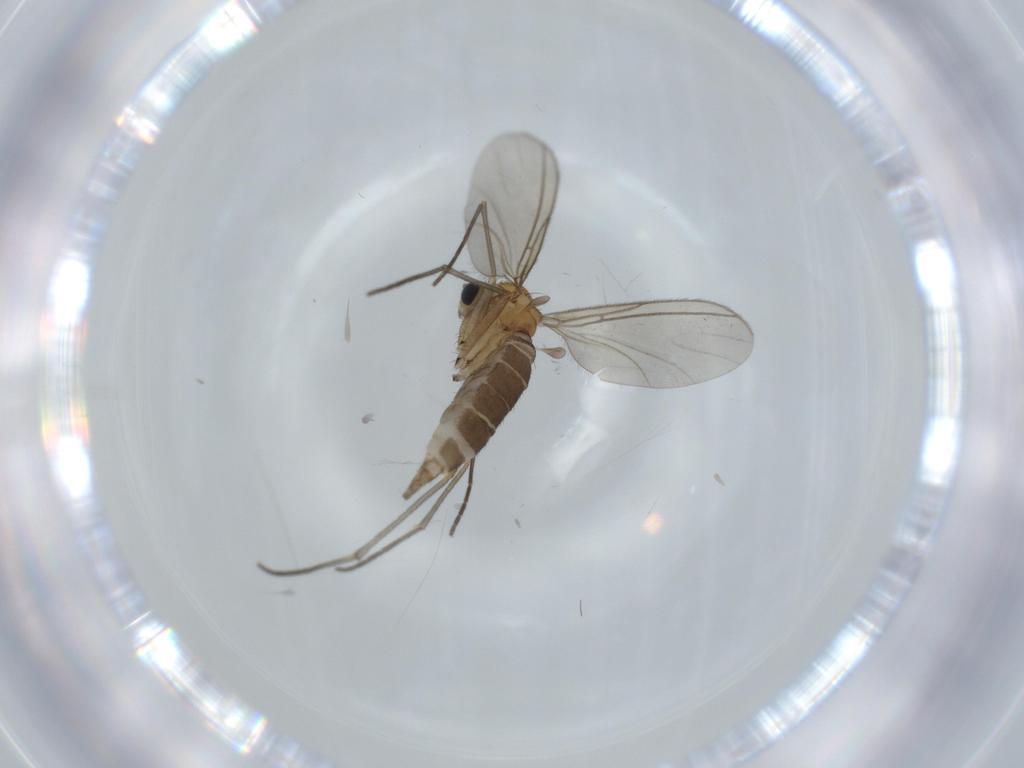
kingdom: Animalia
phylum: Arthropoda
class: Insecta
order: Diptera
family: Sciaridae
